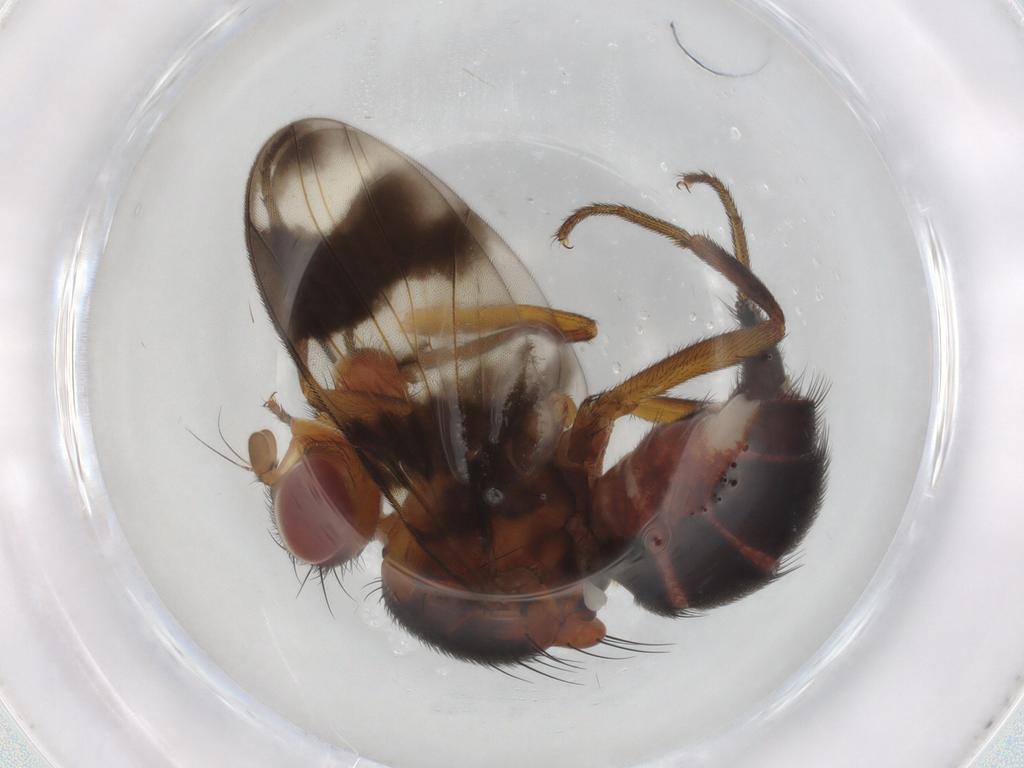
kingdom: Animalia
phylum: Arthropoda
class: Insecta
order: Diptera
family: Richardiidae
